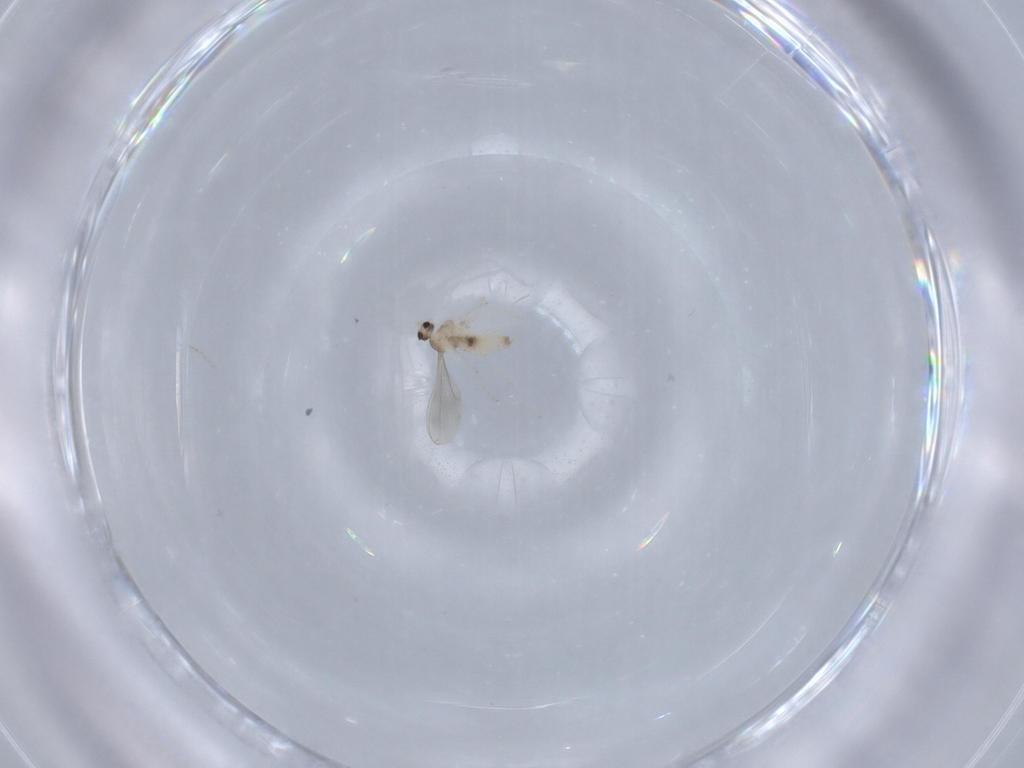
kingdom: Animalia
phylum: Arthropoda
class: Insecta
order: Diptera
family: Cecidomyiidae
